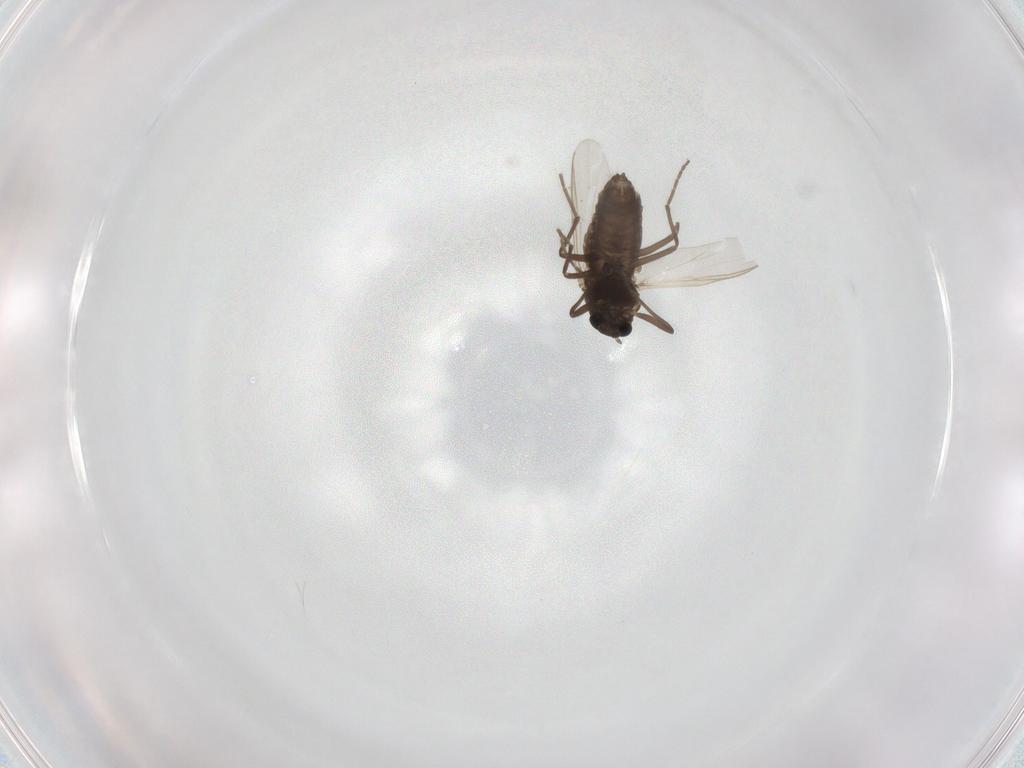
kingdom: Animalia
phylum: Arthropoda
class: Insecta
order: Diptera
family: Chironomidae
